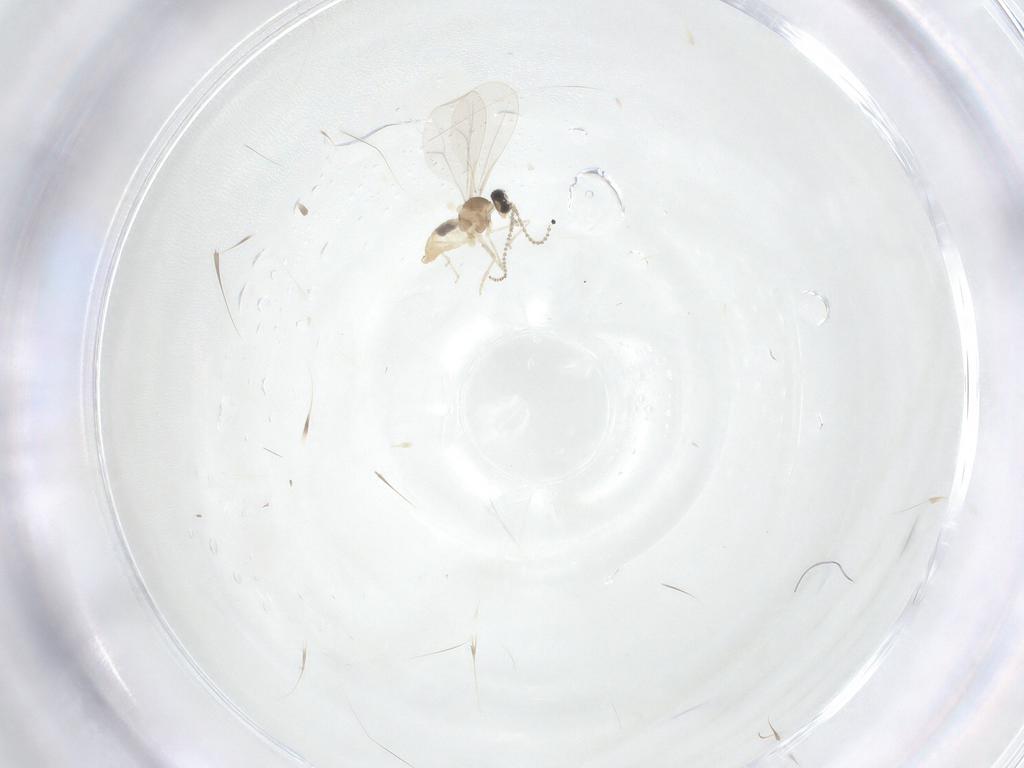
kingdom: Animalia
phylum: Arthropoda
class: Insecta
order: Diptera
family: Cecidomyiidae
